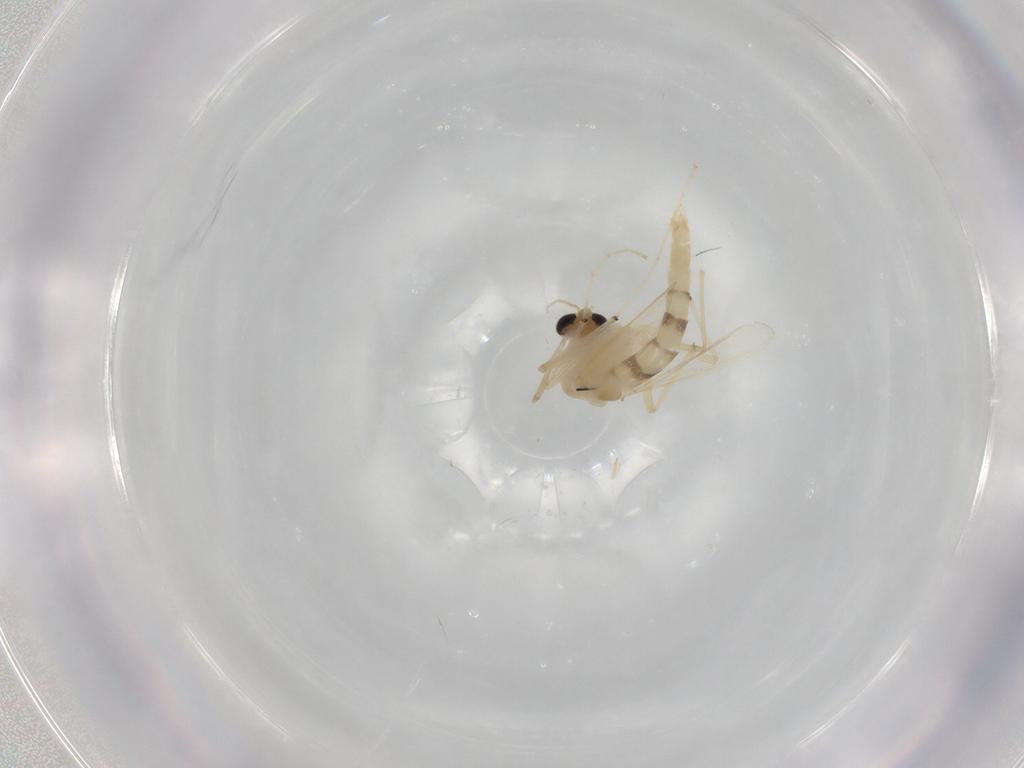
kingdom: Animalia
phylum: Arthropoda
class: Insecta
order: Diptera
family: Chironomidae
